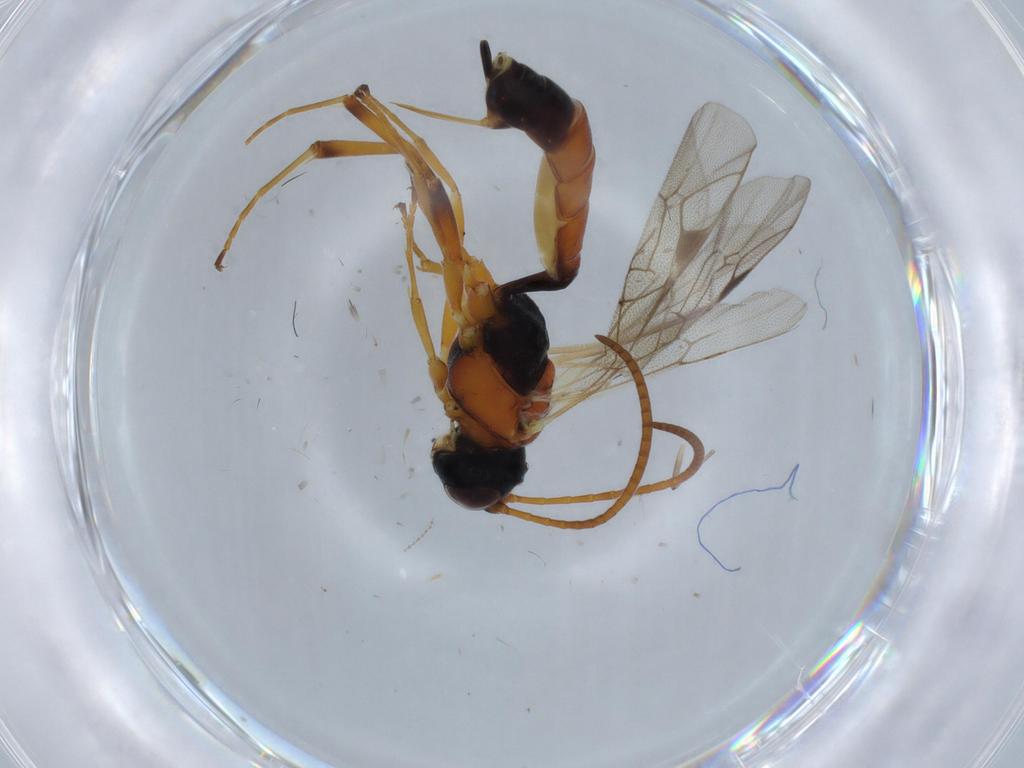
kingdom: Animalia
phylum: Arthropoda
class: Insecta
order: Hymenoptera
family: Ichneumonidae
